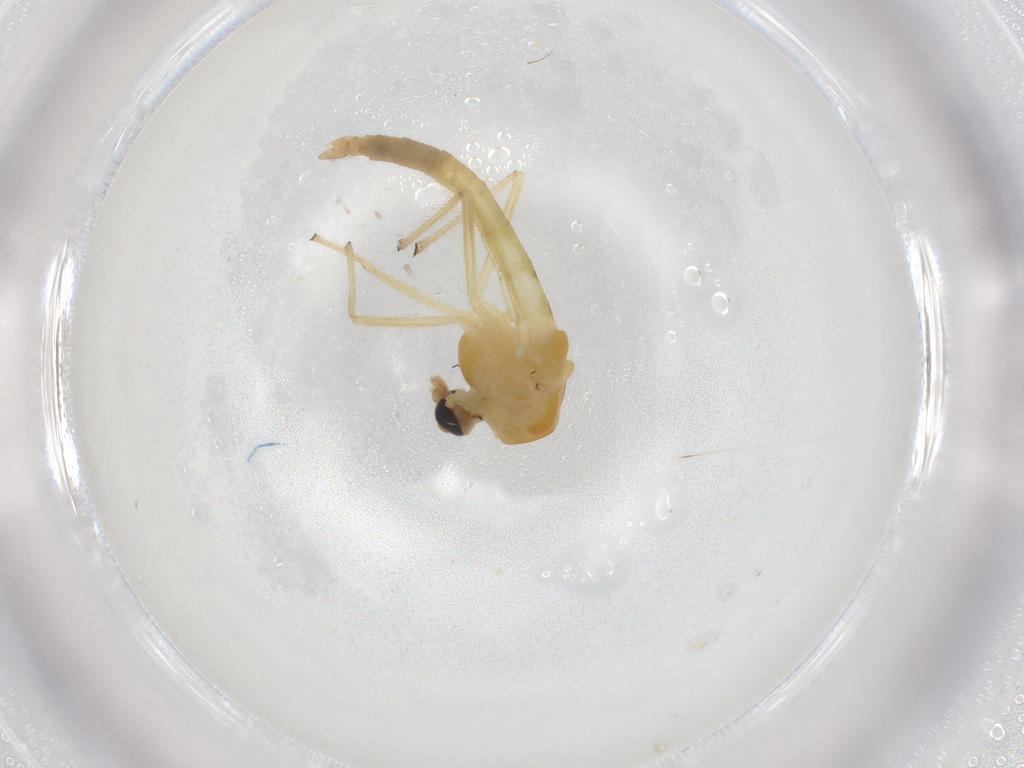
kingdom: Animalia
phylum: Arthropoda
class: Insecta
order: Diptera
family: Chironomidae
